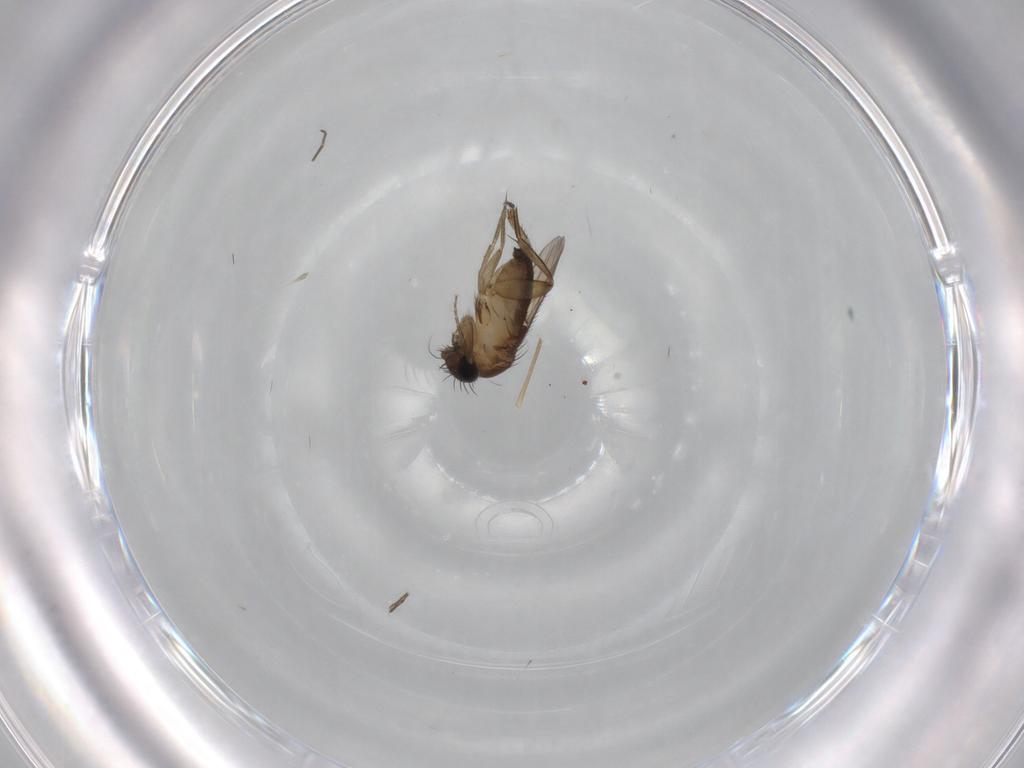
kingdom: Animalia
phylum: Arthropoda
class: Insecta
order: Diptera
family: Phoridae
